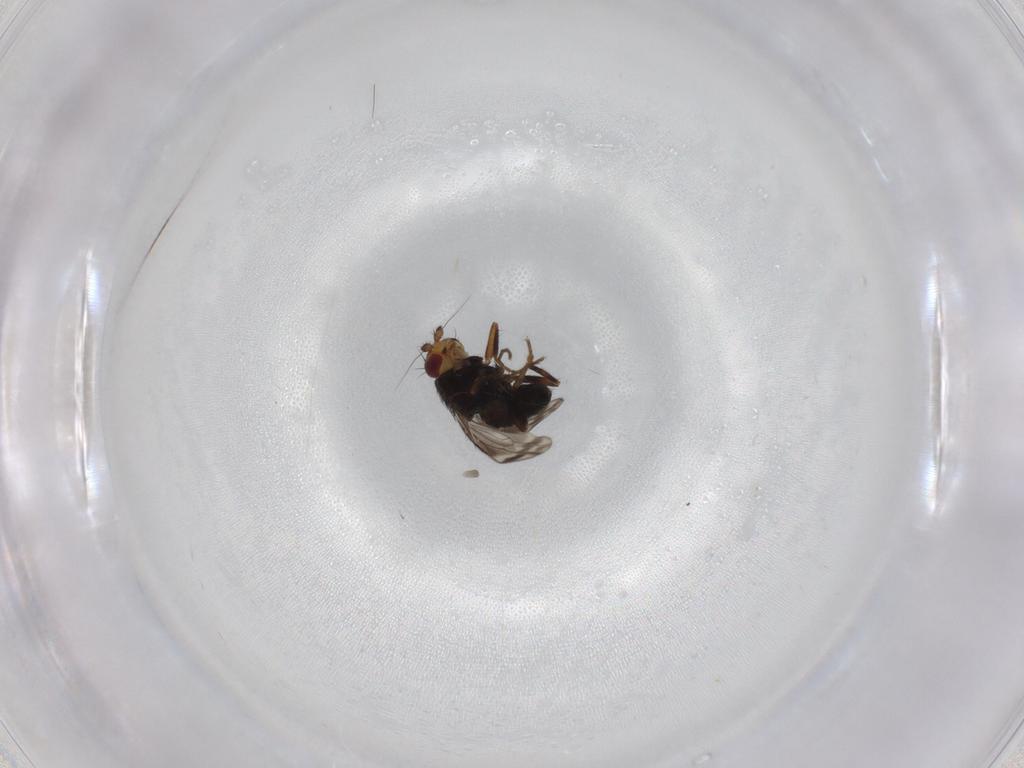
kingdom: Animalia
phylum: Arthropoda
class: Insecta
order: Diptera
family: Sphaeroceridae
